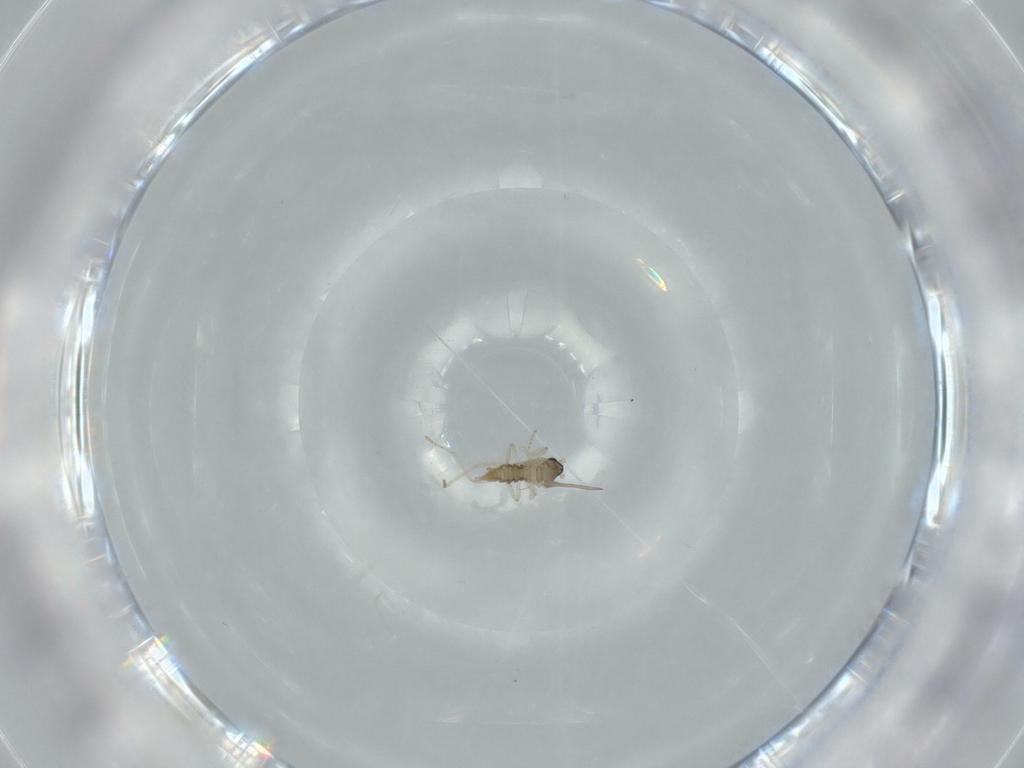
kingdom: Animalia
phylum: Arthropoda
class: Insecta
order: Diptera
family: Cecidomyiidae
